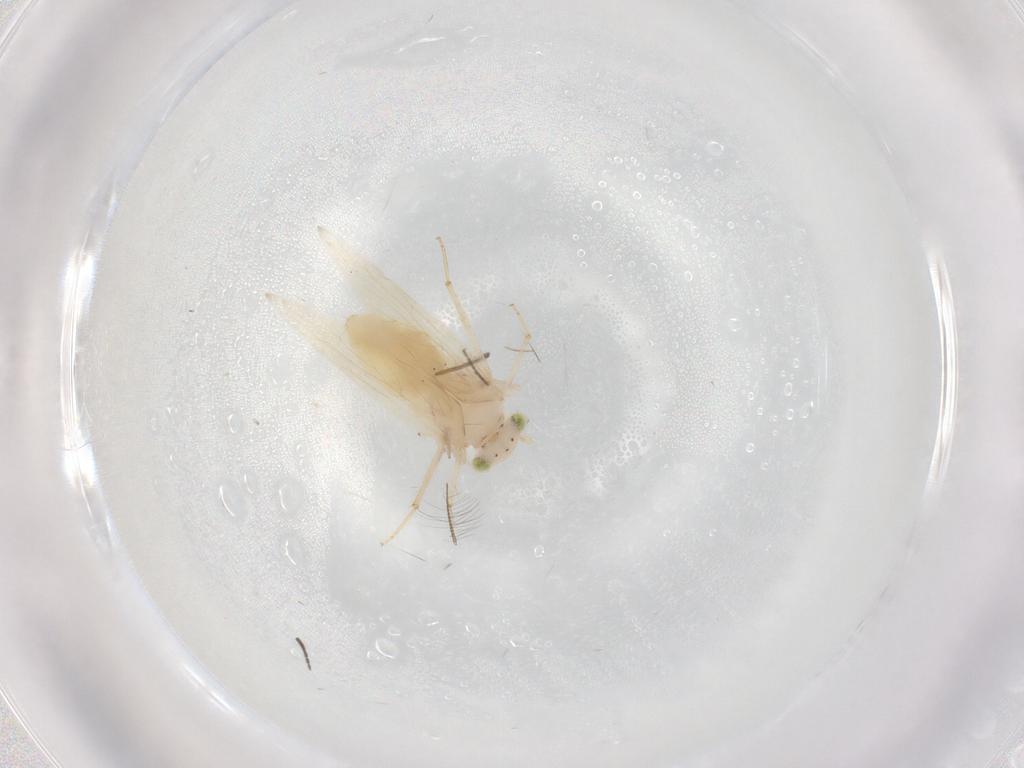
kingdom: Animalia
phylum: Arthropoda
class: Insecta
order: Psocodea
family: Lepidopsocidae
